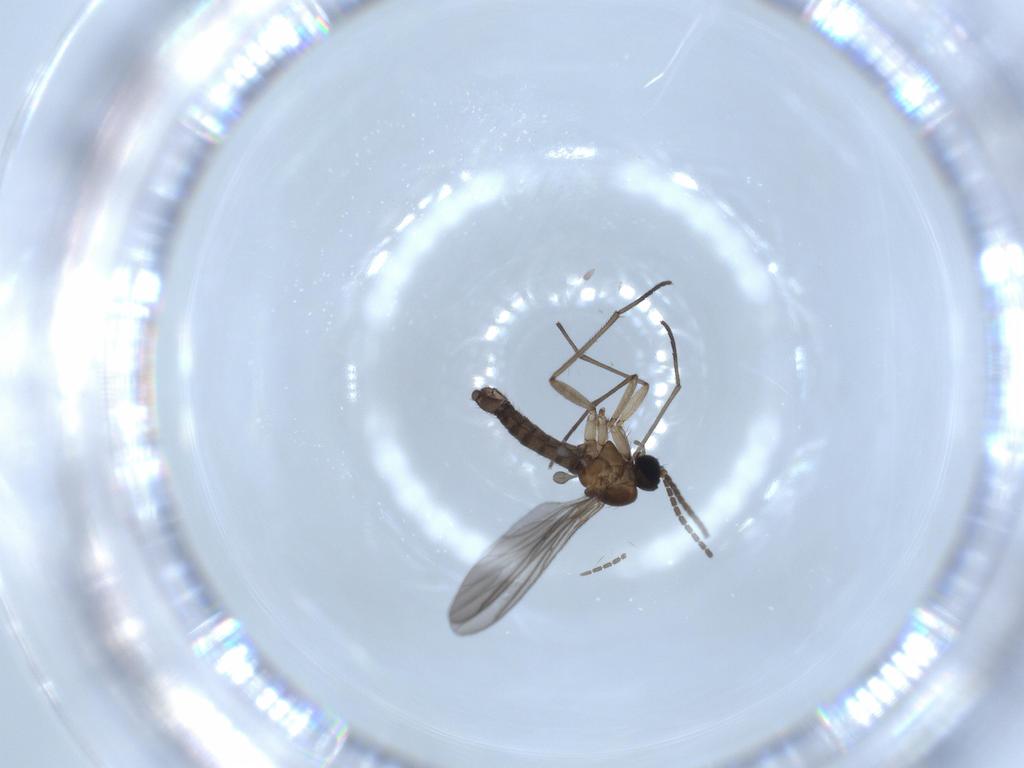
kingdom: Animalia
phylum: Arthropoda
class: Insecta
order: Diptera
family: Sciaridae
